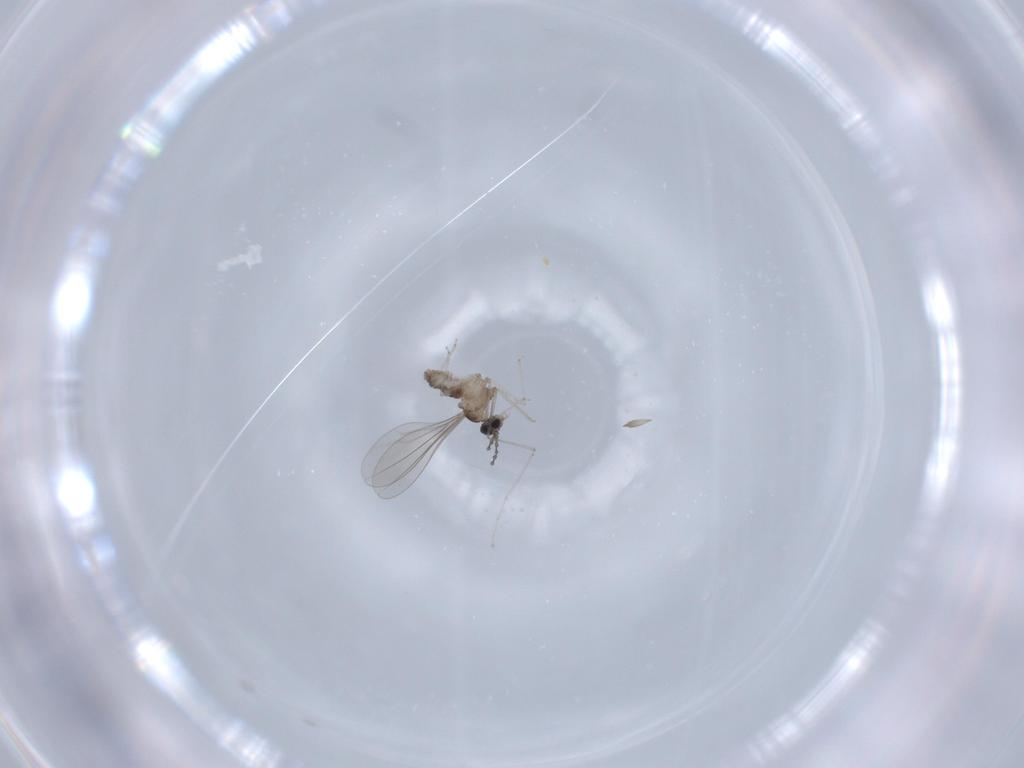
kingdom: Animalia
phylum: Arthropoda
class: Insecta
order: Diptera
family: Cecidomyiidae
